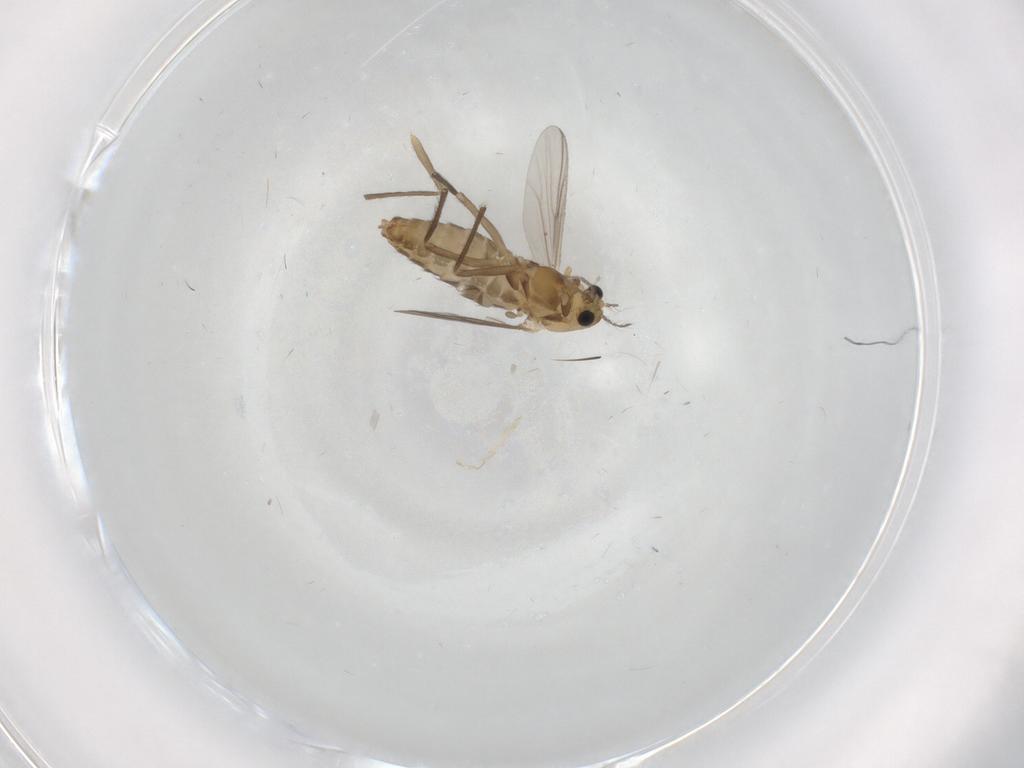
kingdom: Animalia
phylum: Arthropoda
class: Insecta
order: Diptera
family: Chironomidae
